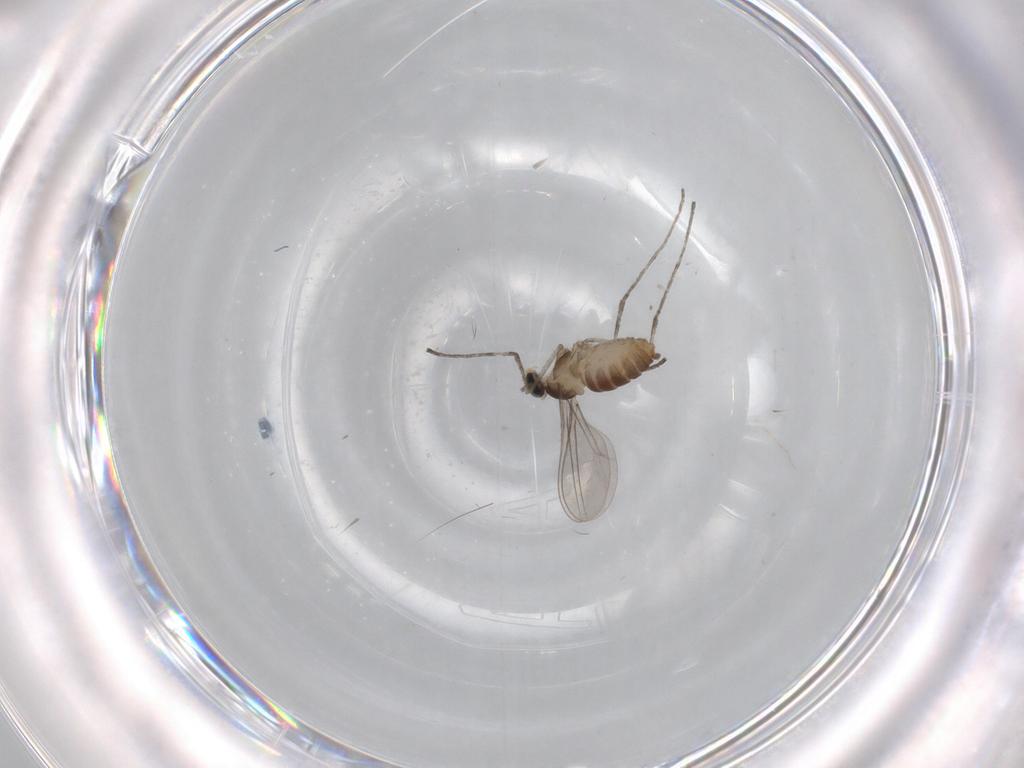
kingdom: Animalia
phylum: Arthropoda
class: Insecta
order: Diptera
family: Cecidomyiidae
